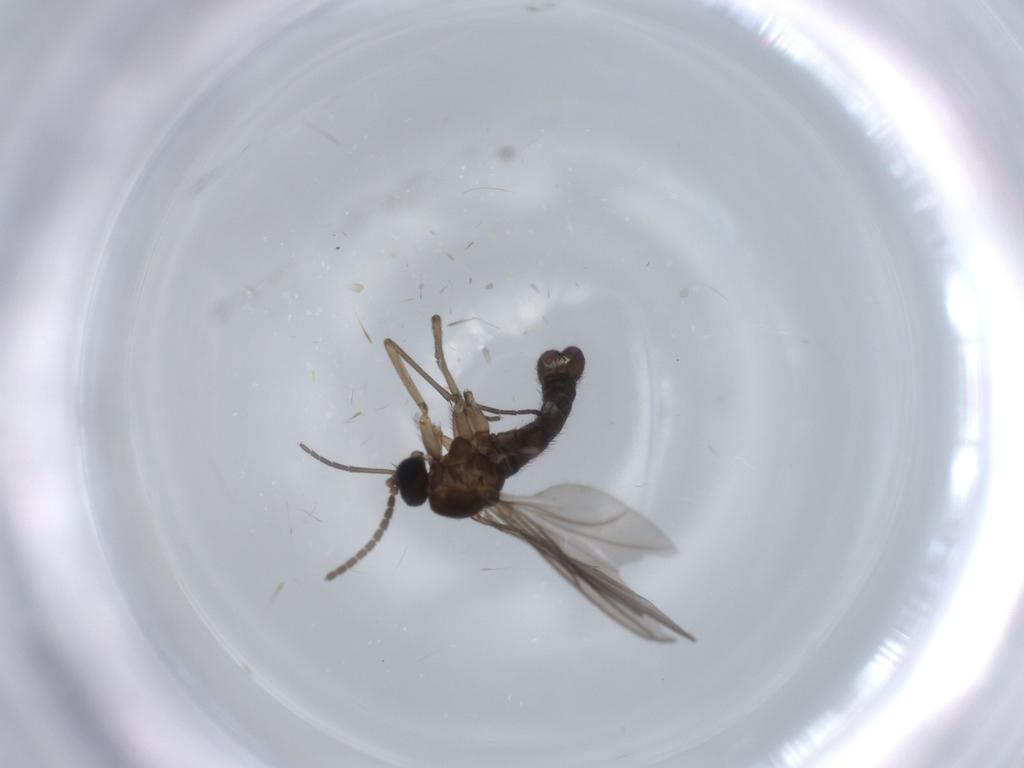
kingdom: Animalia
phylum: Arthropoda
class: Insecta
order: Diptera
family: Sciaridae
